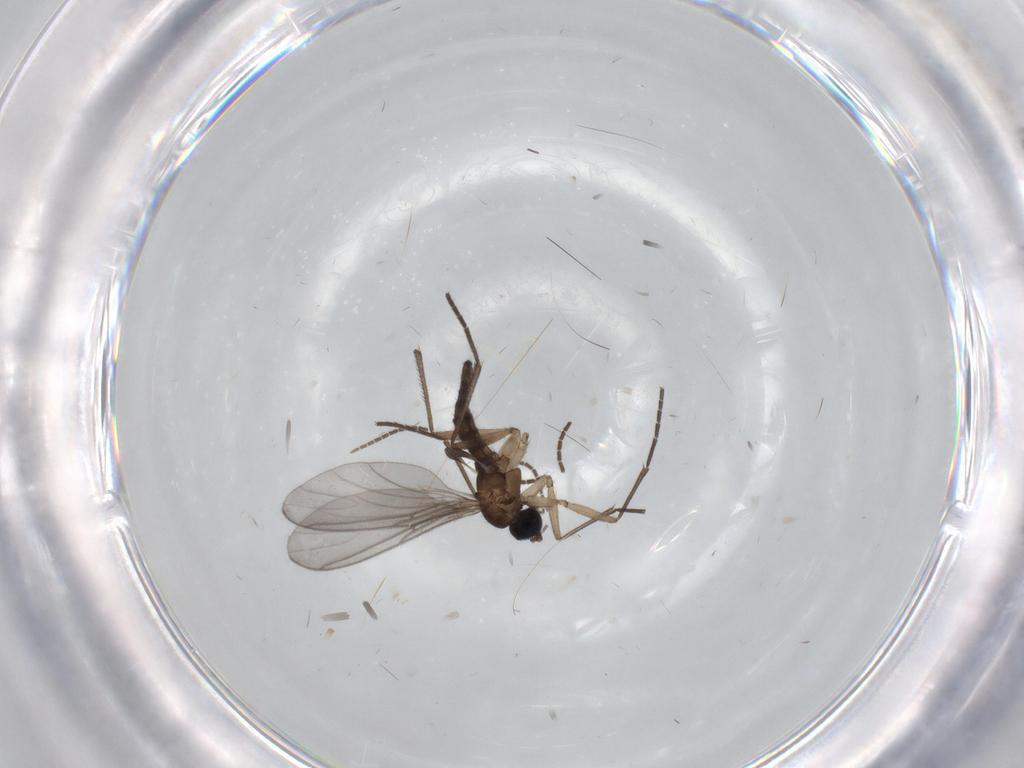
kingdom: Animalia
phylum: Arthropoda
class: Insecta
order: Diptera
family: Sciaridae
